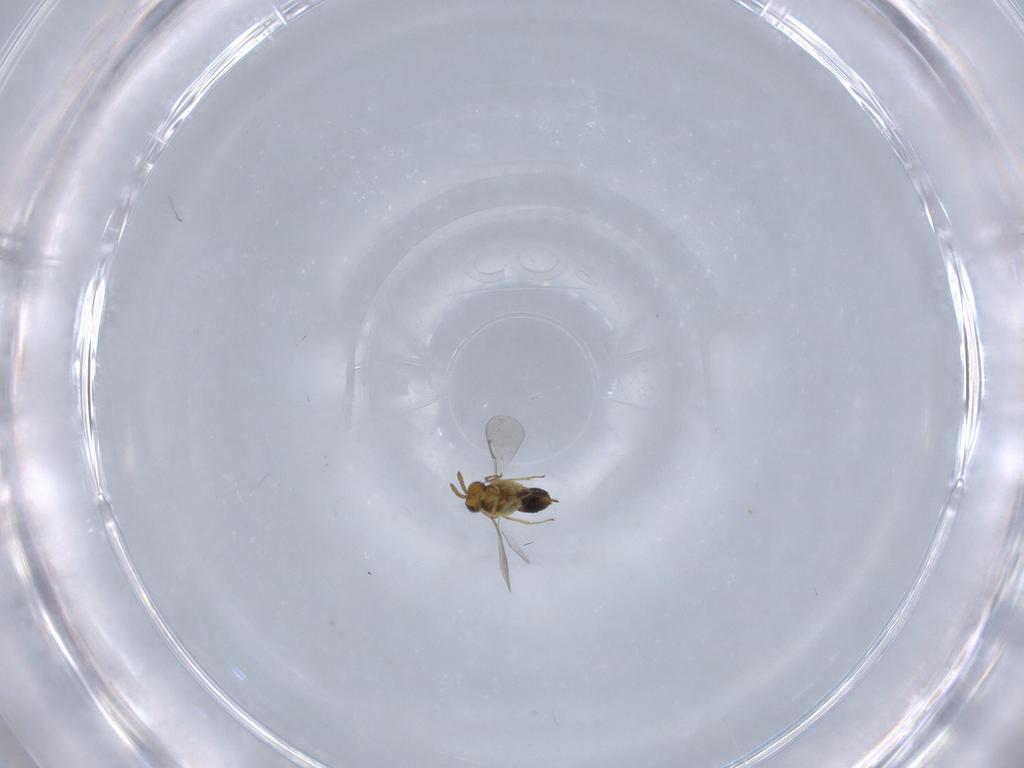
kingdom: Animalia
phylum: Arthropoda
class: Insecta
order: Hymenoptera
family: Aphelinidae
